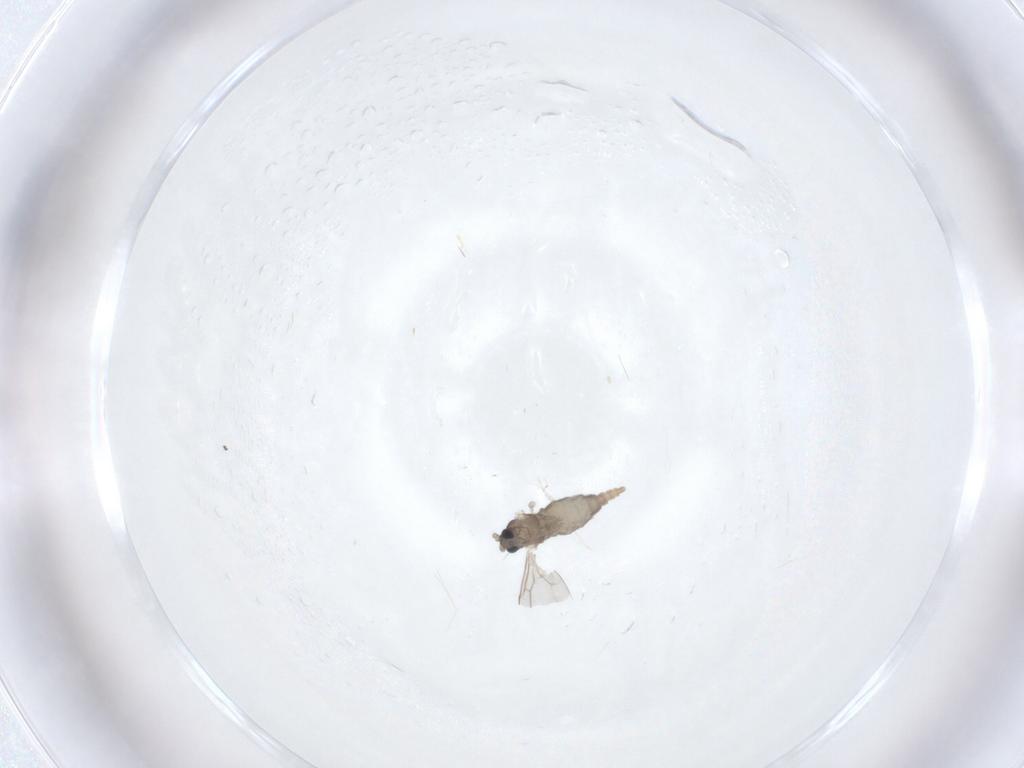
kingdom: Animalia
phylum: Arthropoda
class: Insecta
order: Diptera
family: Cecidomyiidae
